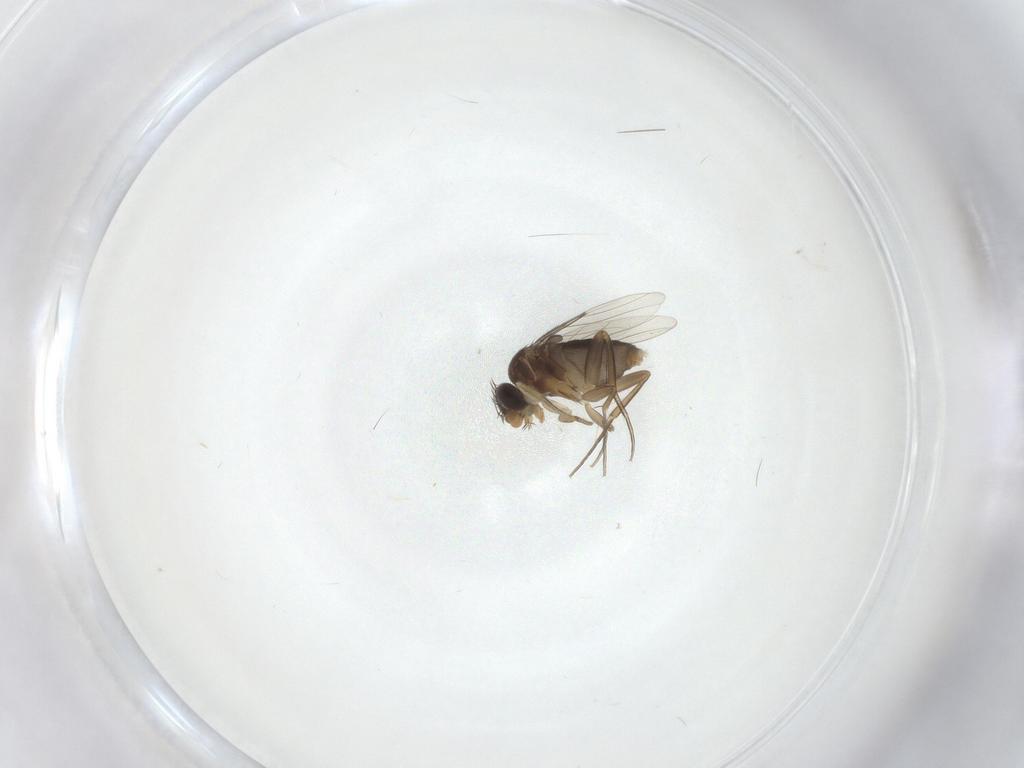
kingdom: Animalia
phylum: Arthropoda
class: Insecta
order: Diptera
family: Phoridae
